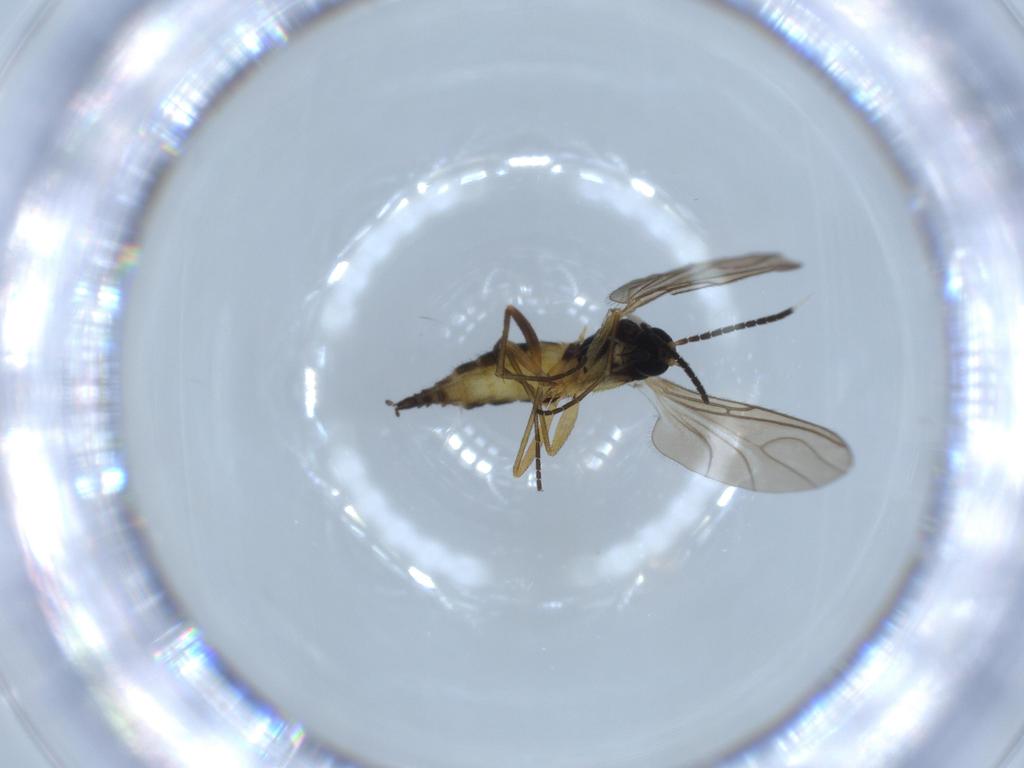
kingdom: Animalia
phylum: Arthropoda
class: Insecta
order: Diptera
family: Sciaridae
